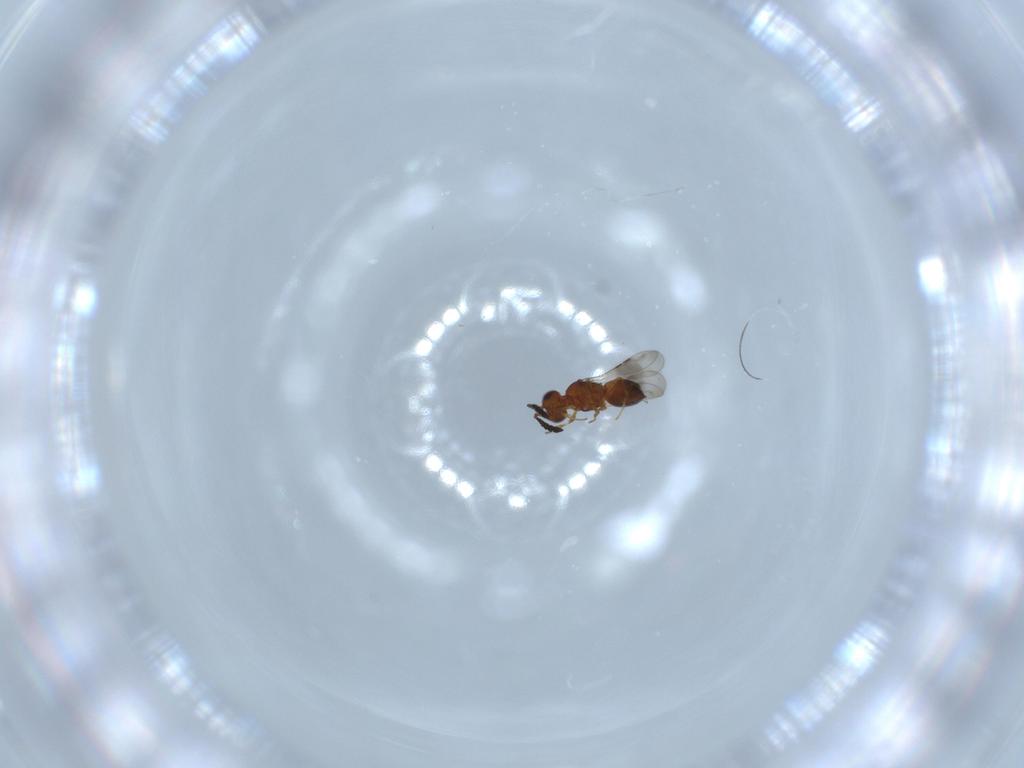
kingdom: Animalia
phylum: Arthropoda
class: Insecta
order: Hymenoptera
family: Ceraphronidae
